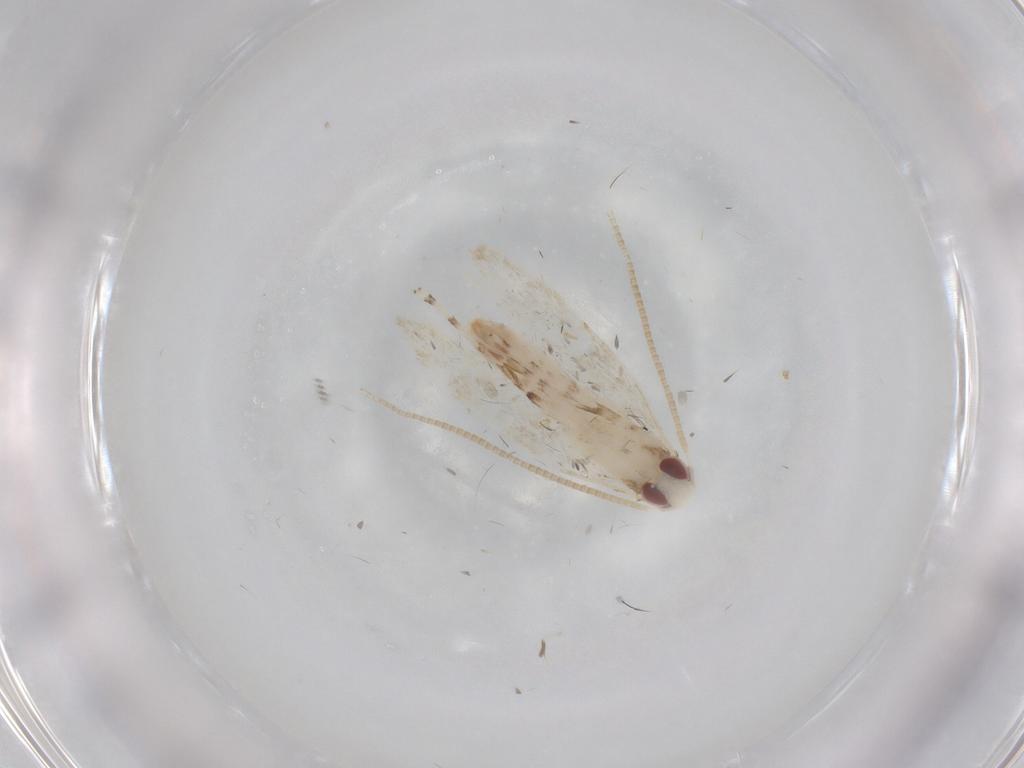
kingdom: Animalia
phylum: Arthropoda
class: Insecta
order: Lepidoptera
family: Gracillariidae
